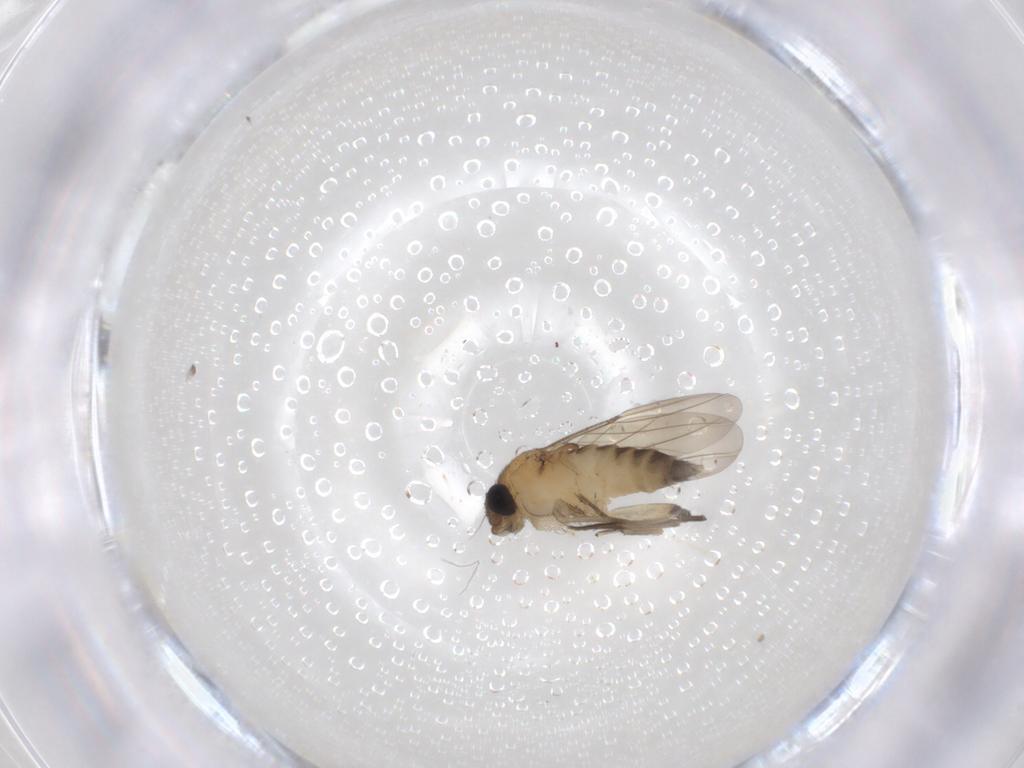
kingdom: Animalia
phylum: Arthropoda
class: Insecta
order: Diptera
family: Phoridae
